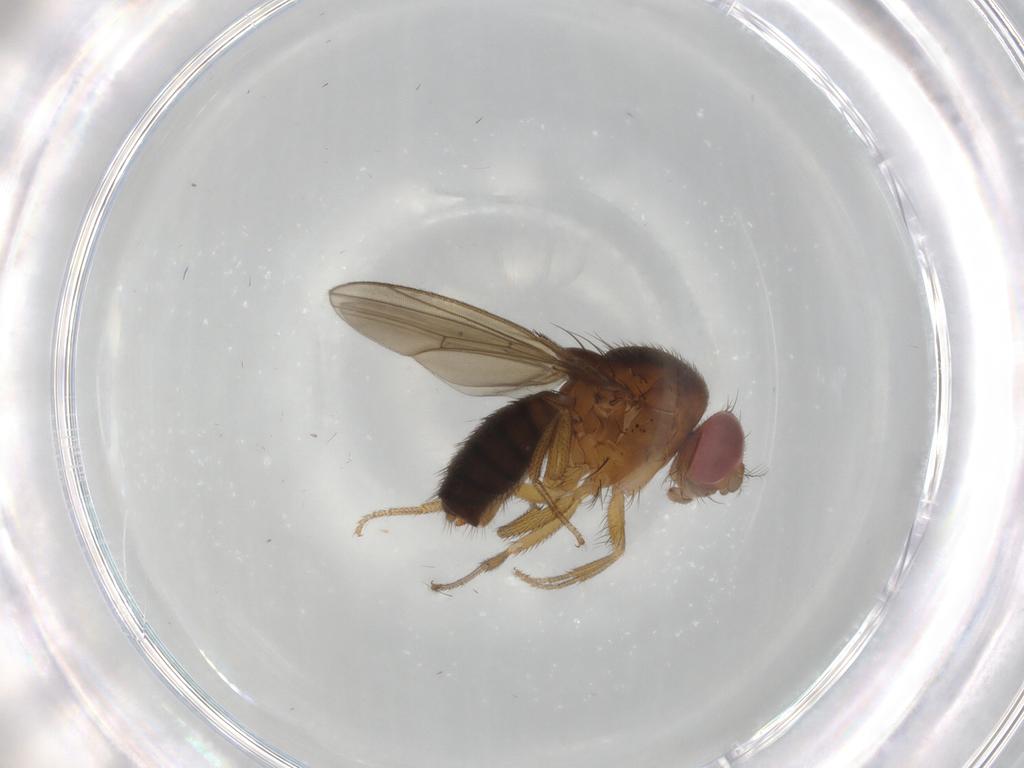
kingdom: Animalia
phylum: Arthropoda
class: Insecta
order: Diptera
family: Drosophilidae
